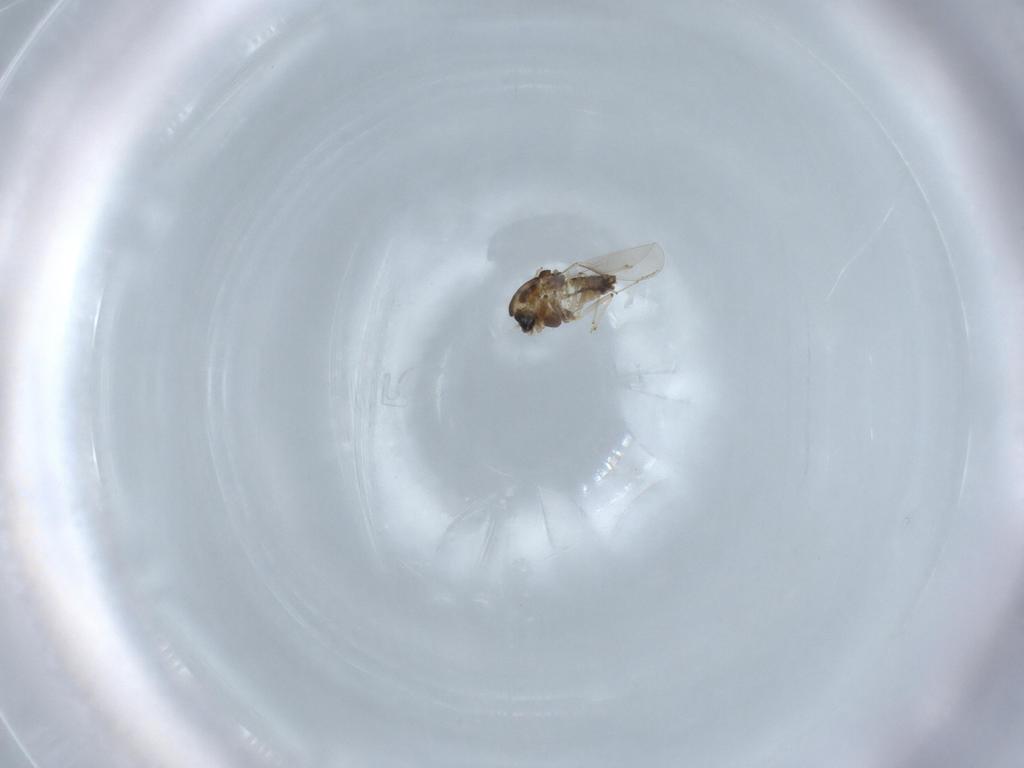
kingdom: Animalia
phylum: Arthropoda
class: Insecta
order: Diptera
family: Chironomidae
